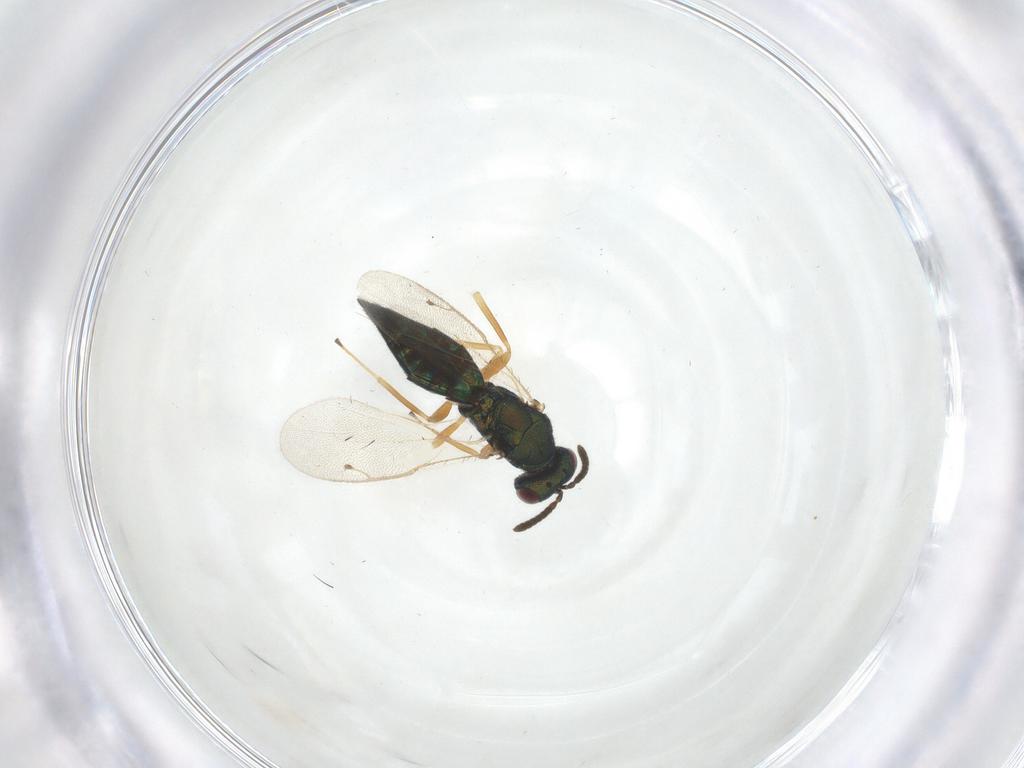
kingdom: Animalia
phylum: Arthropoda
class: Insecta
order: Hymenoptera
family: Pteromalidae
